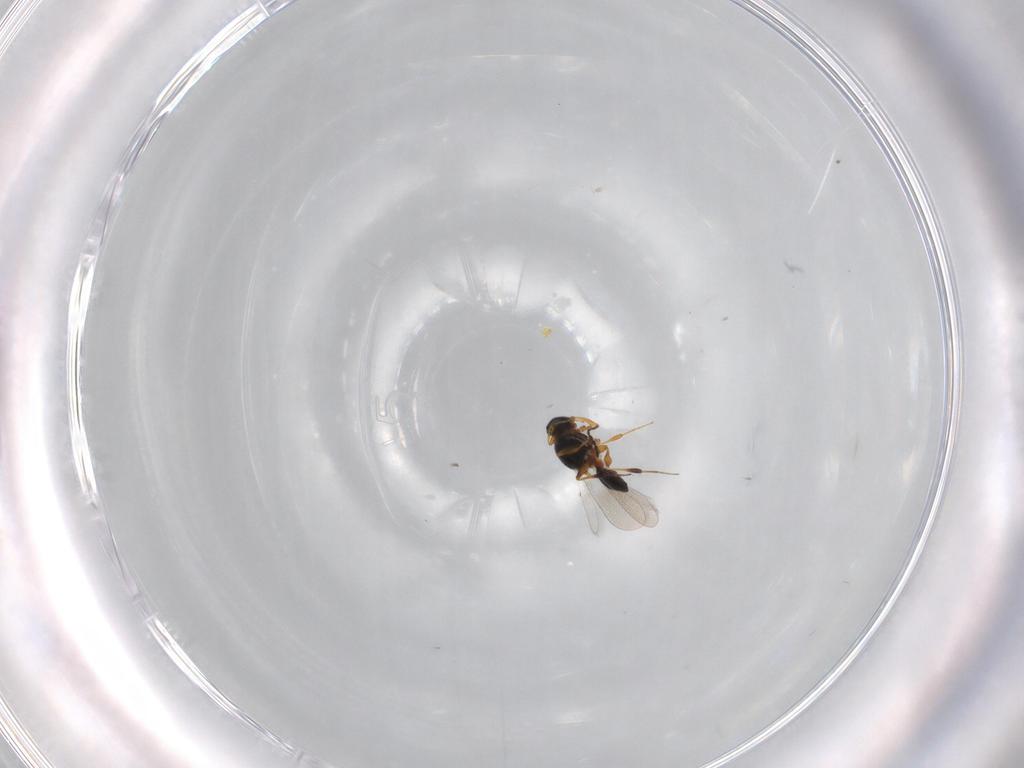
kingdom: Animalia
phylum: Arthropoda
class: Insecta
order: Hymenoptera
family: Platygastridae
